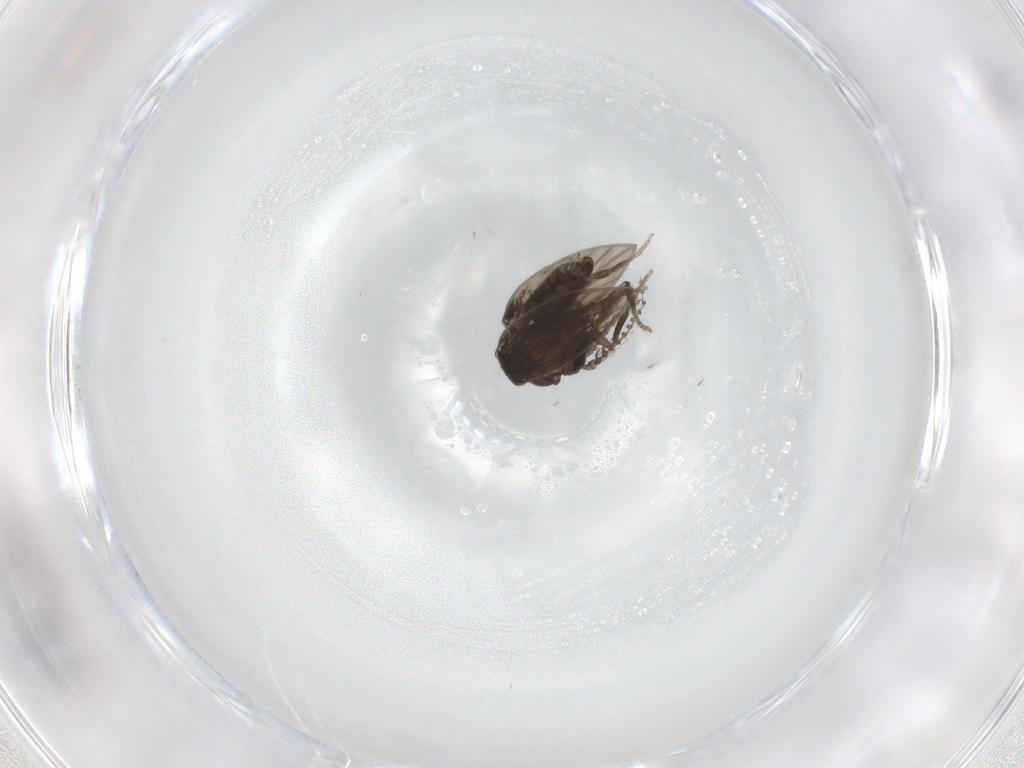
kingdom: Animalia
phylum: Arthropoda
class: Insecta
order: Diptera
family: Psychodidae
